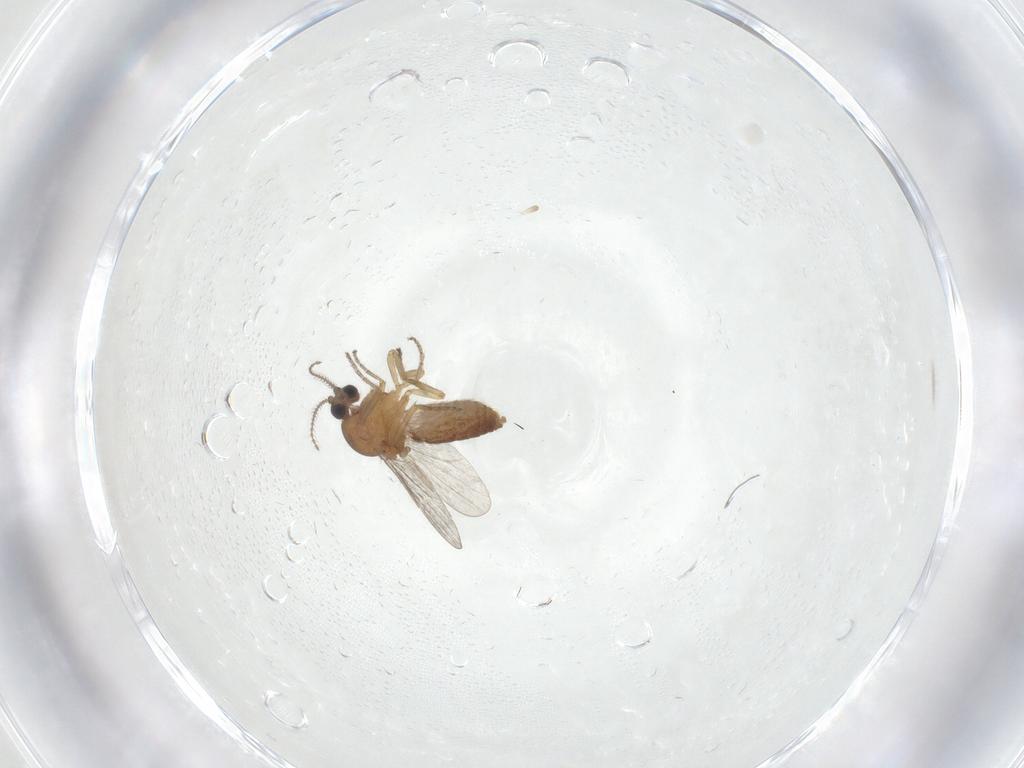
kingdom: Animalia
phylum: Arthropoda
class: Insecta
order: Diptera
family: Ceratopogonidae
